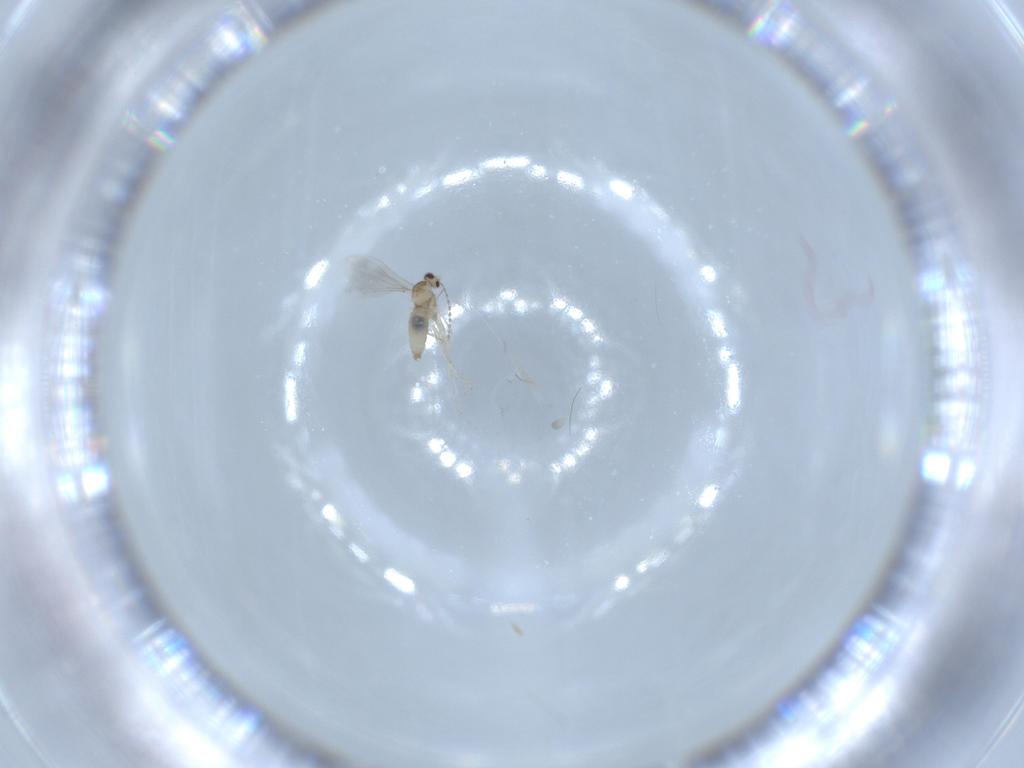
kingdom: Animalia
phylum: Arthropoda
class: Insecta
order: Diptera
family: Cecidomyiidae
